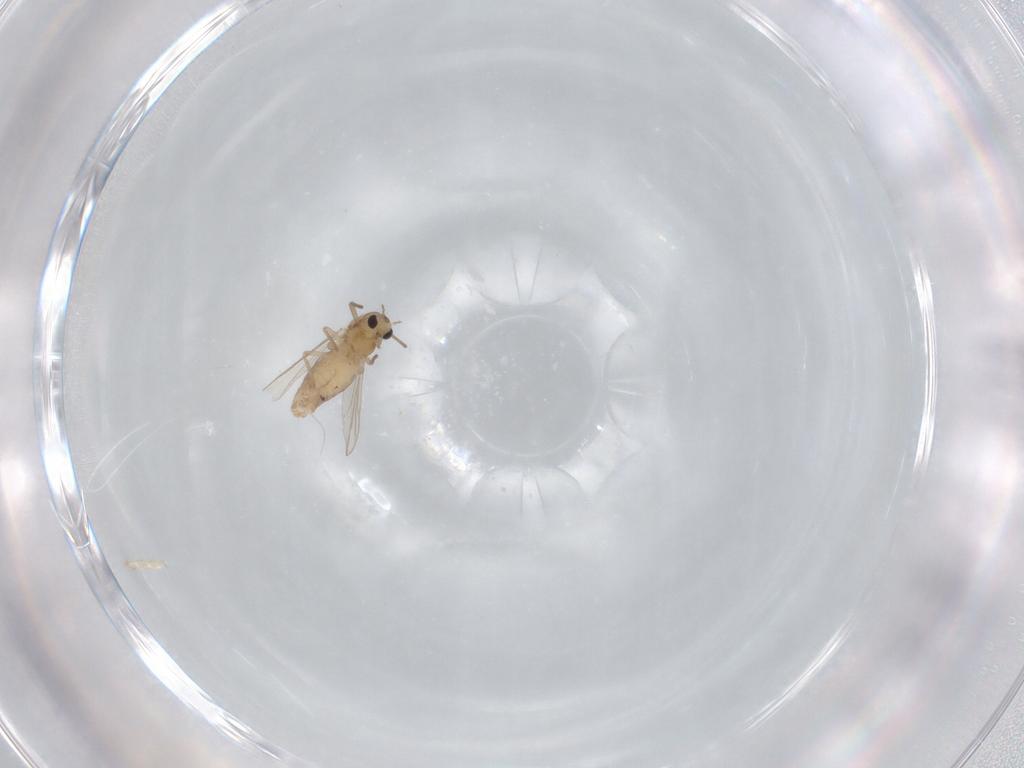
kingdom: Animalia
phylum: Arthropoda
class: Insecta
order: Diptera
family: Chironomidae
